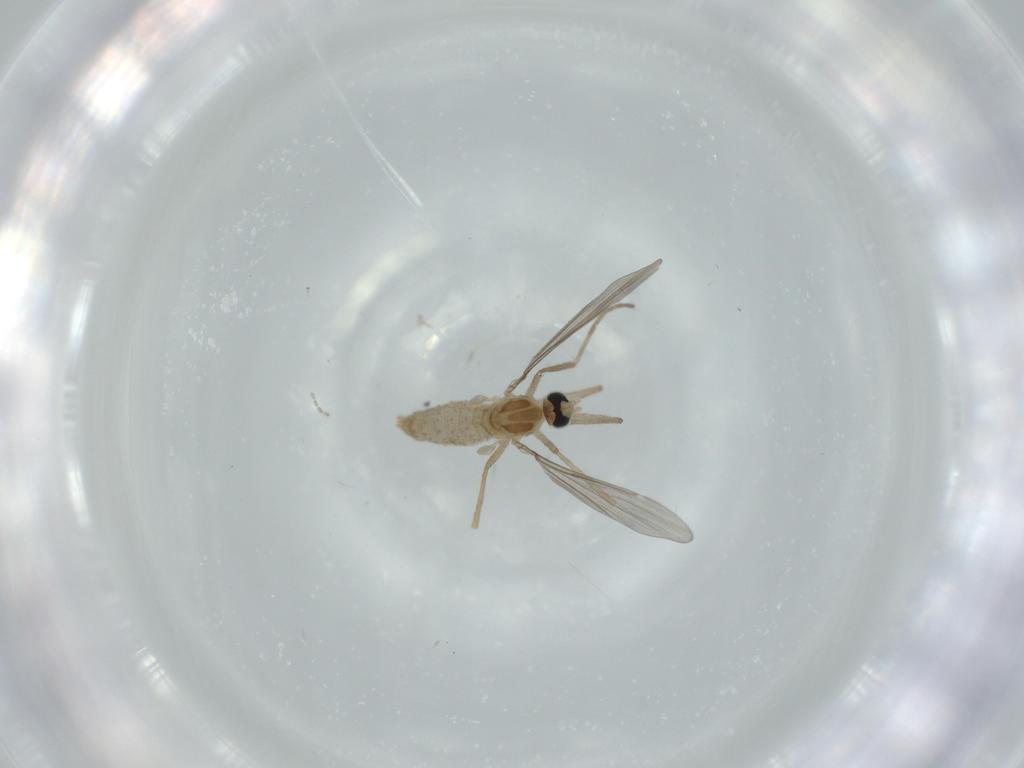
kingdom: Animalia
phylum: Arthropoda
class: Insecta
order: Diptera
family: Cecidomyiidae
